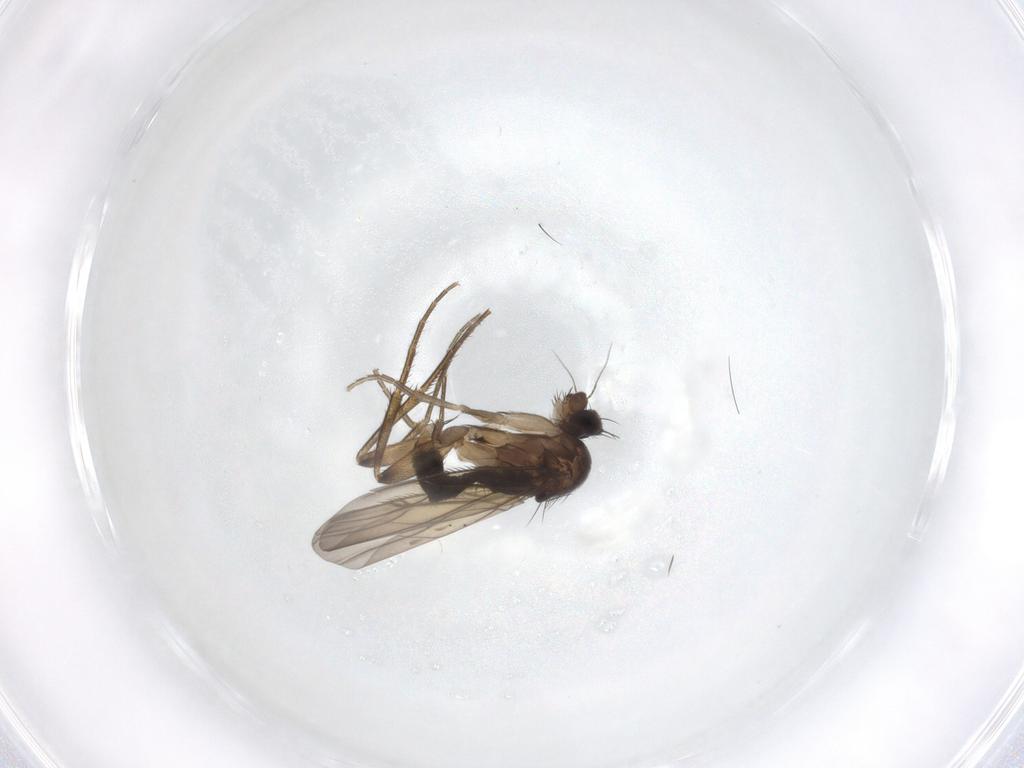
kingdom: Animalia
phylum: Arthropoda
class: Insecta
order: Diptera
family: Phoridae
